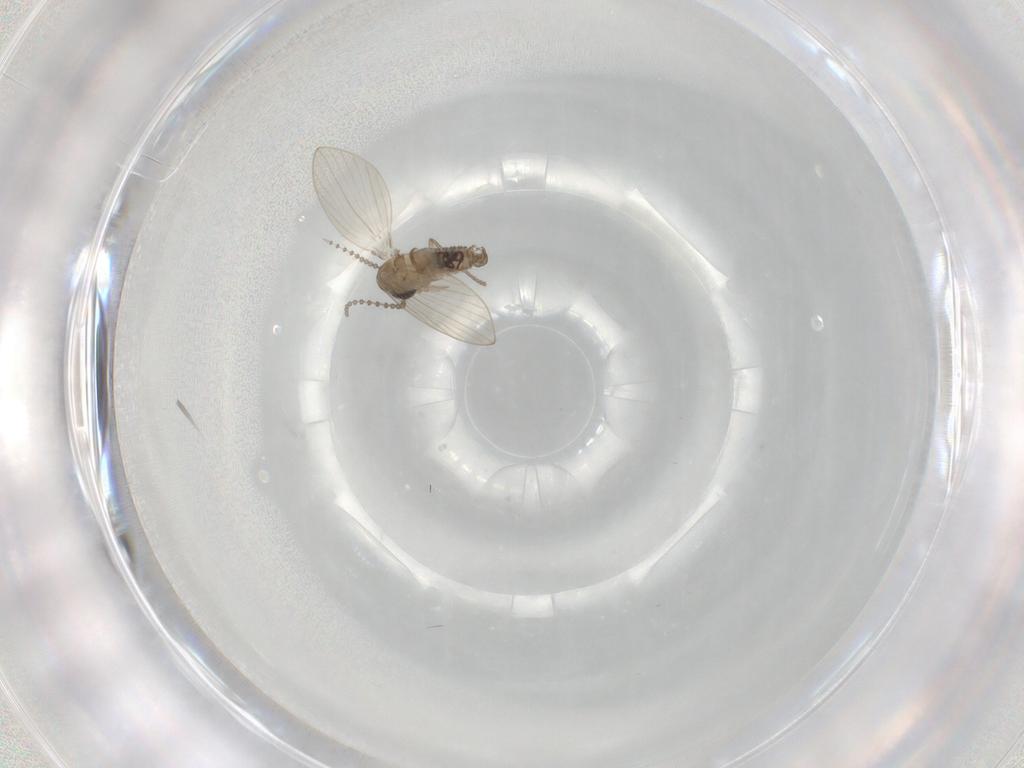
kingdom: Animalia
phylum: Arthropoda
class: Insecta
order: Diptera
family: Psychodidae
